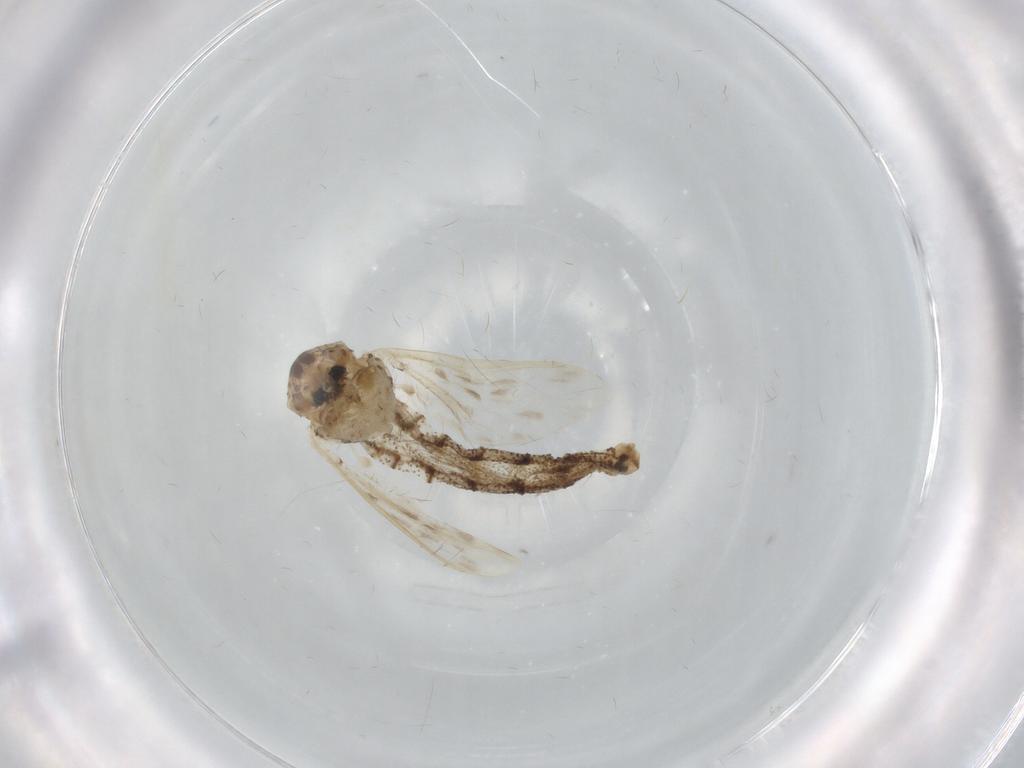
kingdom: Animalia
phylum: Arthropoda
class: Insecta
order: Diptera
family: Chaoboridae
